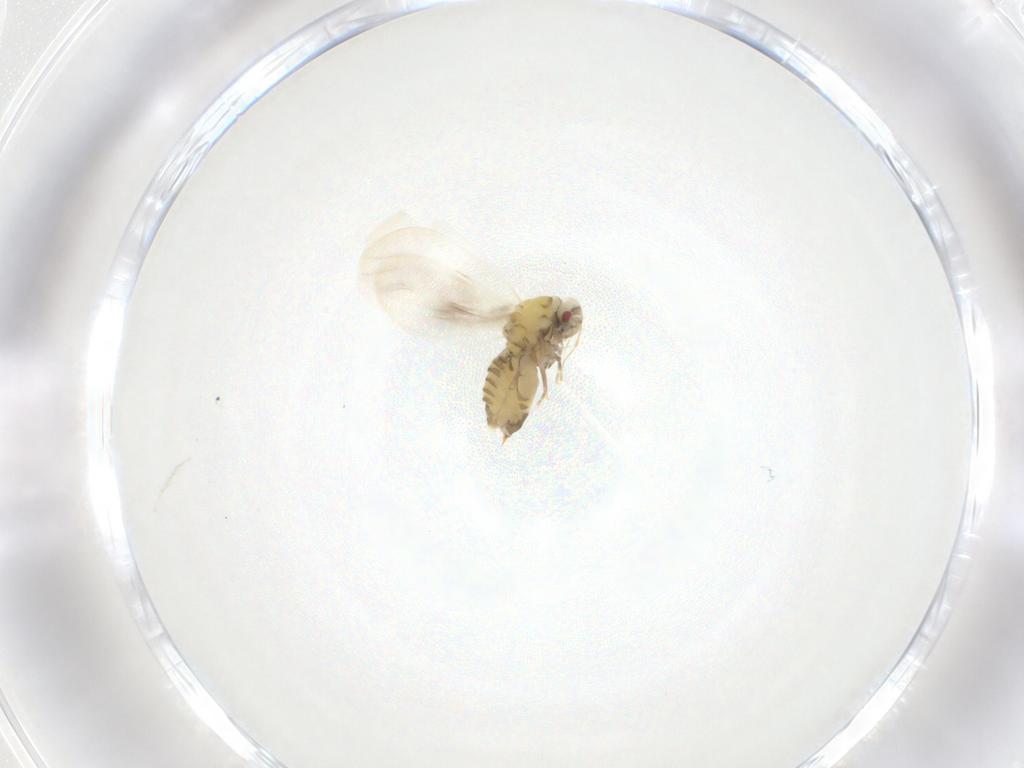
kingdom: Animalia
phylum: Arthropoda
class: Insecta
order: Hemiptera
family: Aleyrodidae
